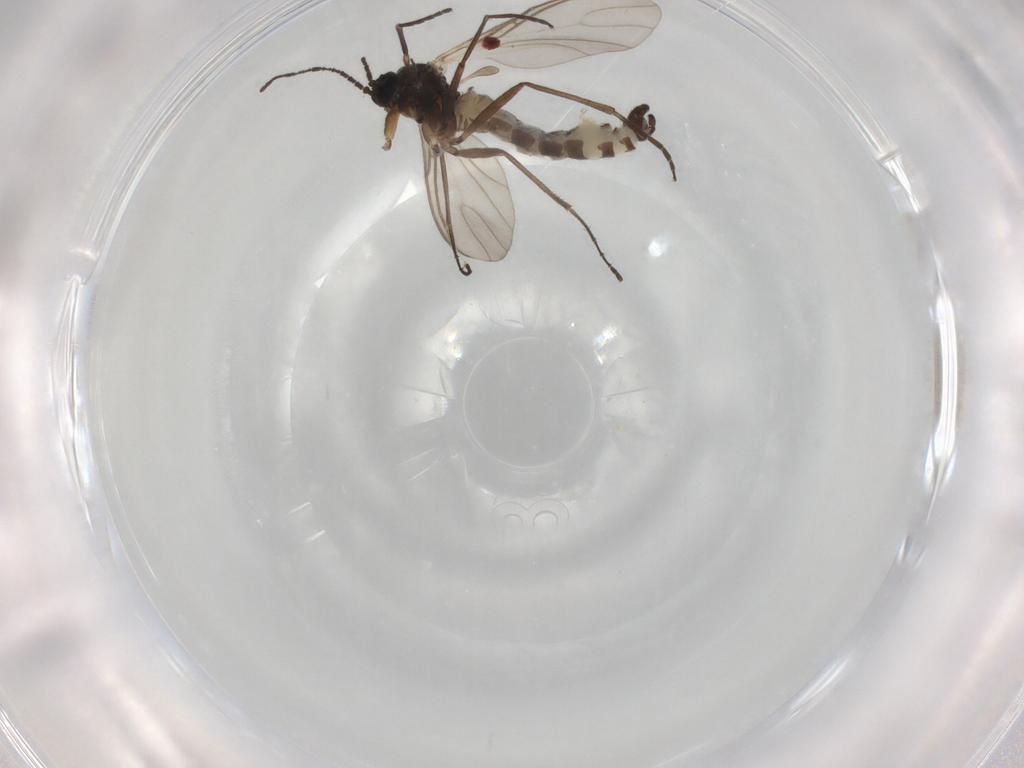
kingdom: Animalia
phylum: Arthropoda
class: Insecta
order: Diptera
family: Sciaridae
